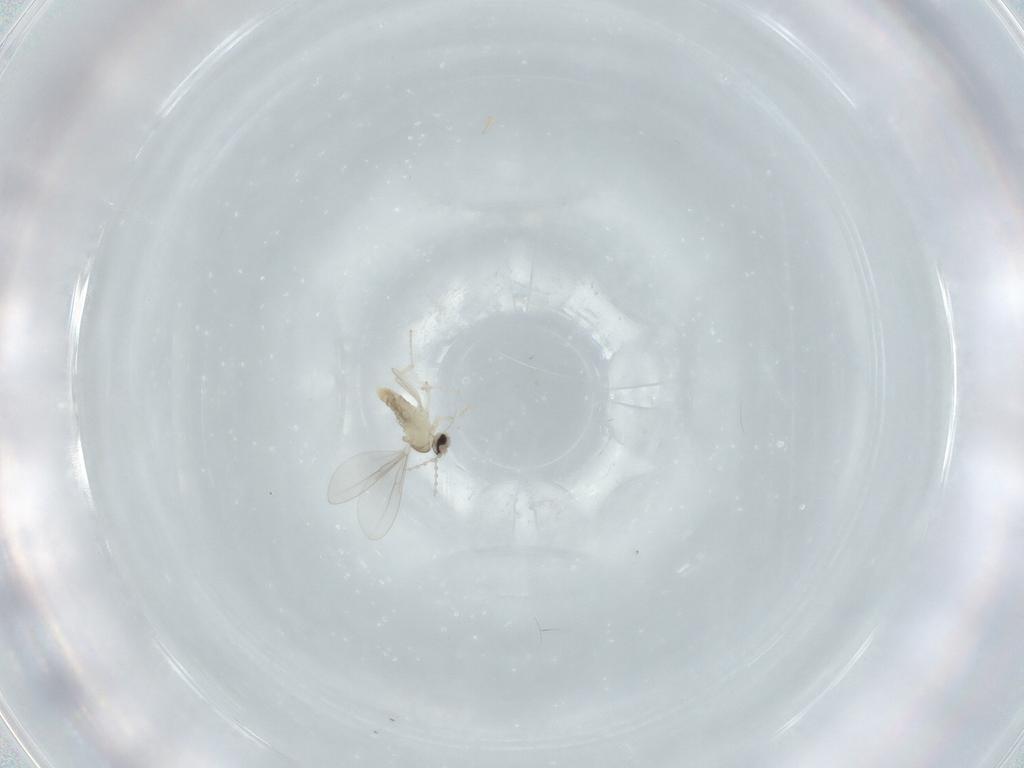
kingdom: Animalia
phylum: Arthropoda
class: Insecta
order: Diptera
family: Cecidomyiidae
